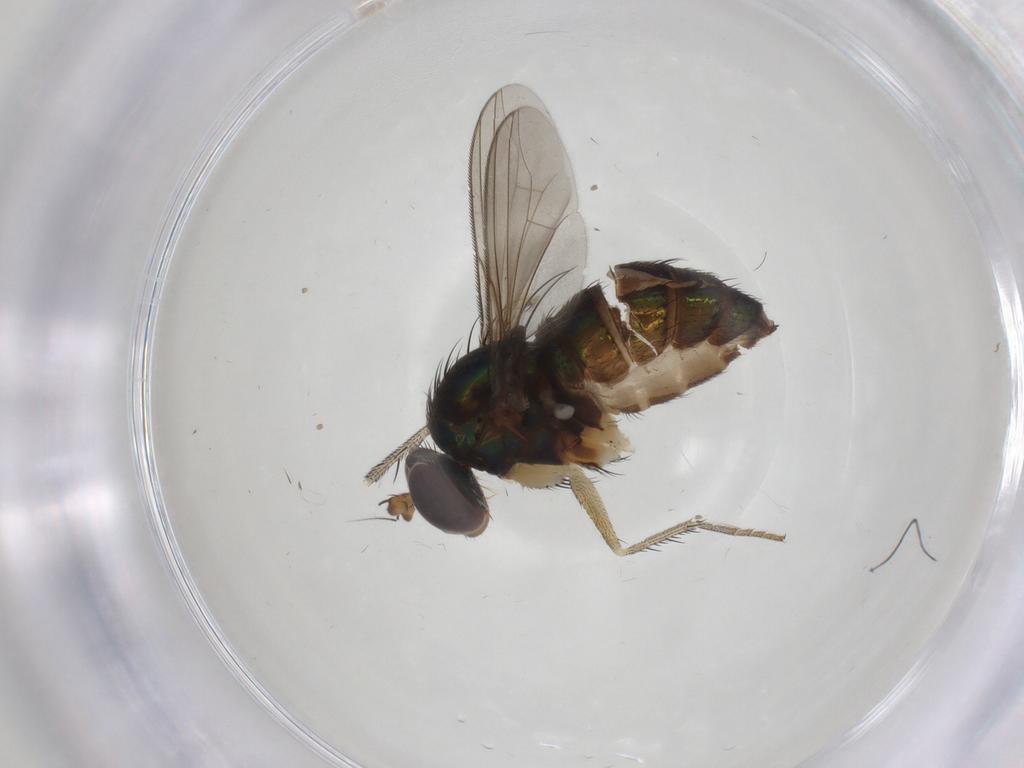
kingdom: Animalia
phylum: Arthropoda
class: Insecta
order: Diptera
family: Dolichopodidae
